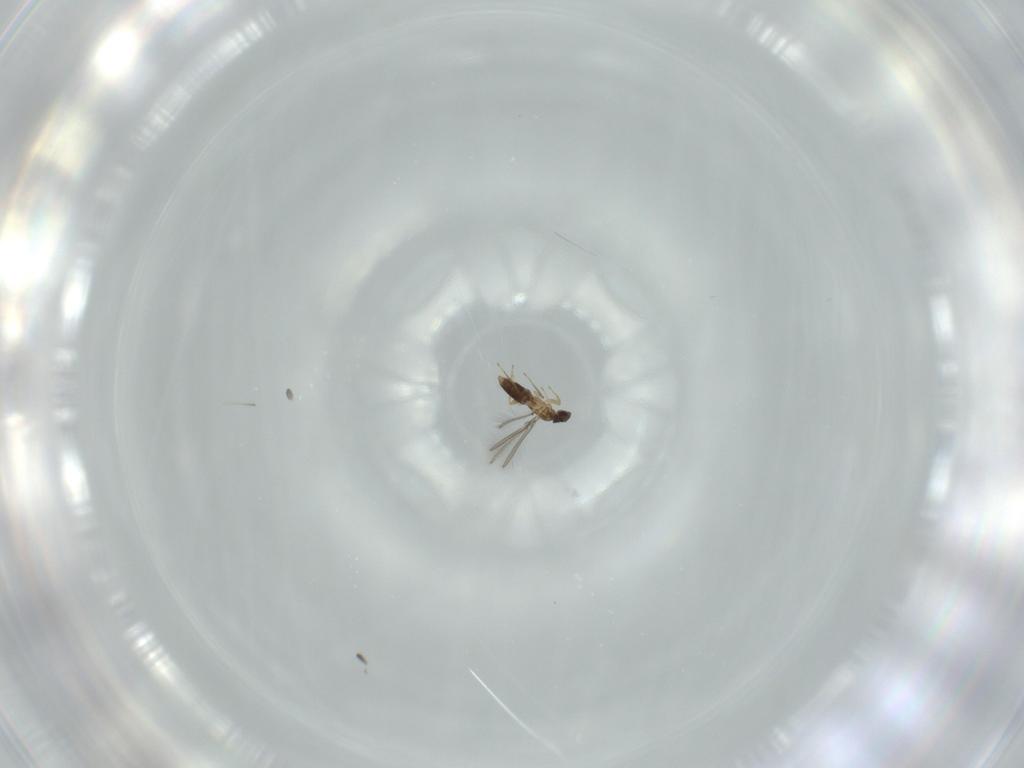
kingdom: Animalia
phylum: Arthropoda
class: Insecta
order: Hymenoptera
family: Mymaridae
